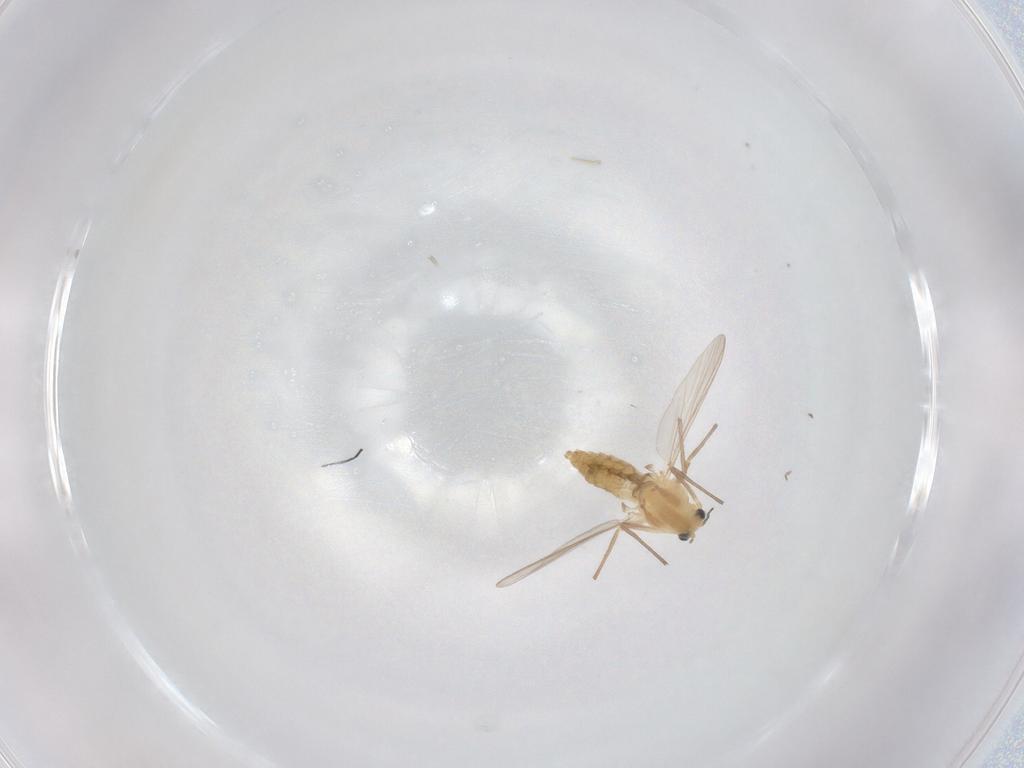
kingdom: Animalia
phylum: Arthropoda
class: Insecta
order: Diptera
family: Chironomidae
